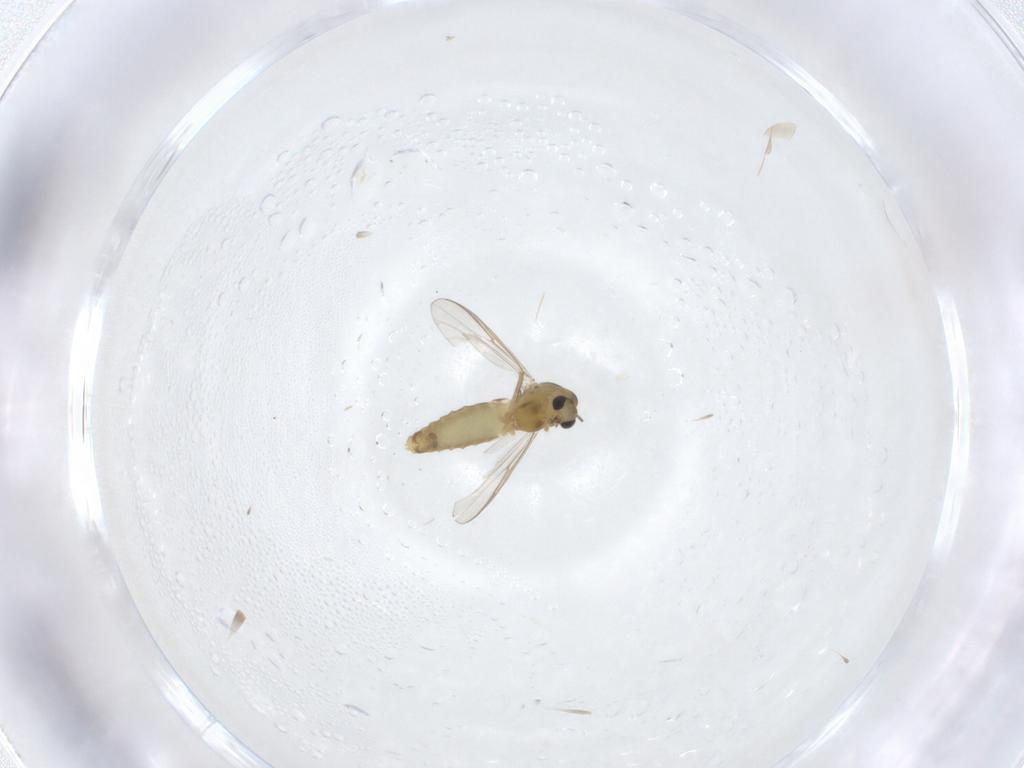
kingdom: Animalia
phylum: Arthropoda
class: Insecta
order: Diptera
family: Chironomidae
